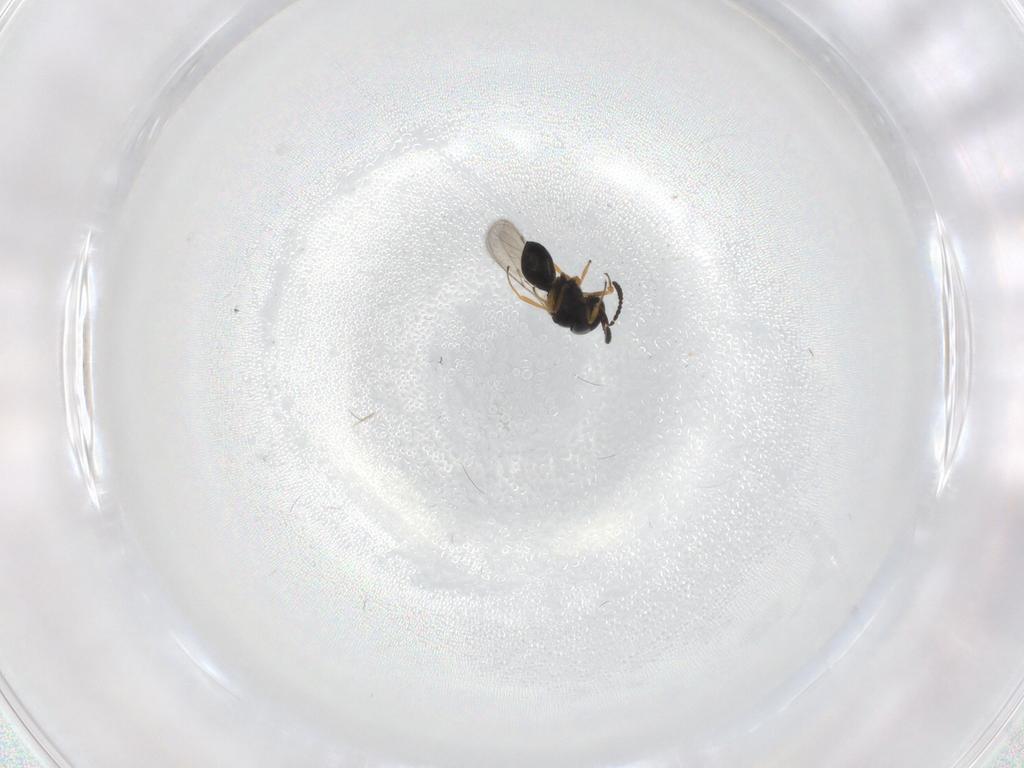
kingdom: Animalia
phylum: Arthropoda
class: Insecta
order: Hymenoptera
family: Scelionidae
